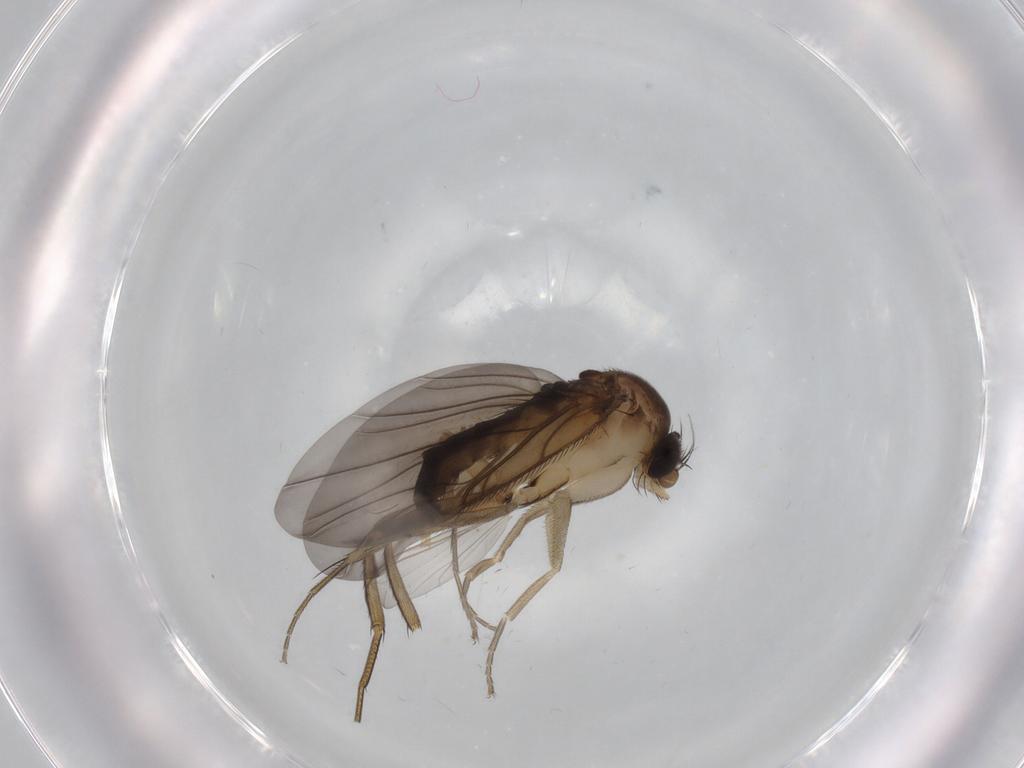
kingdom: Animalia
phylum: Arthropoda
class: Insecta
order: Diptera
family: Phoridae
